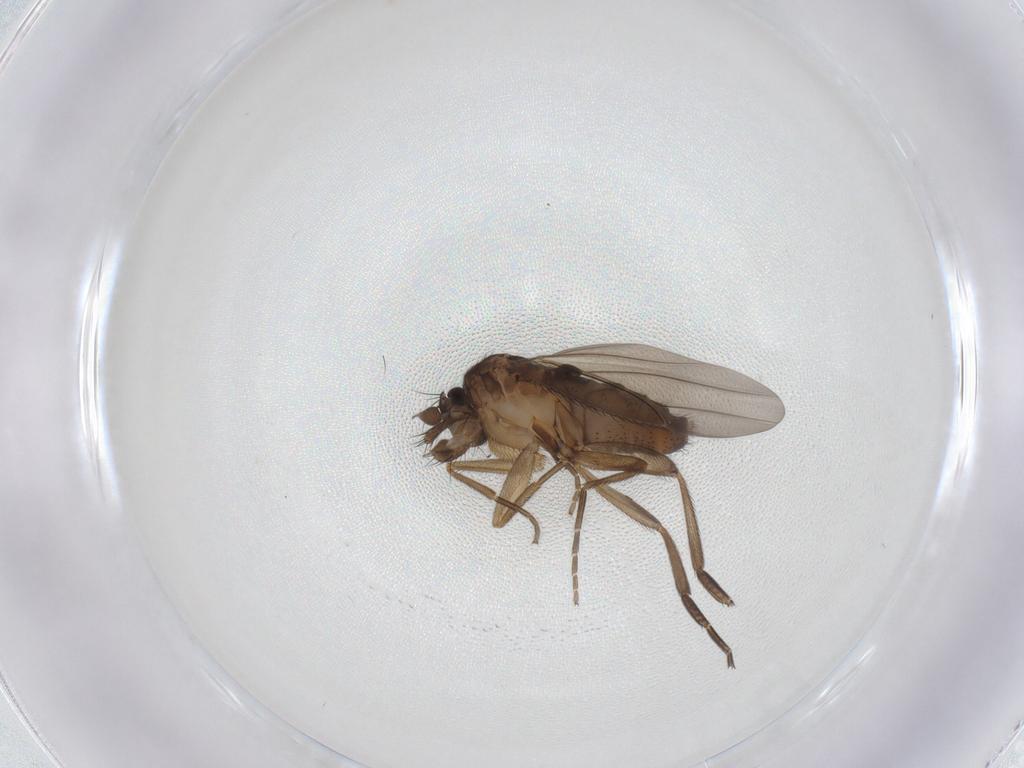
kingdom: Animalia
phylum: Arthropoda
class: Insecta
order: Diptera
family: Phoridae
